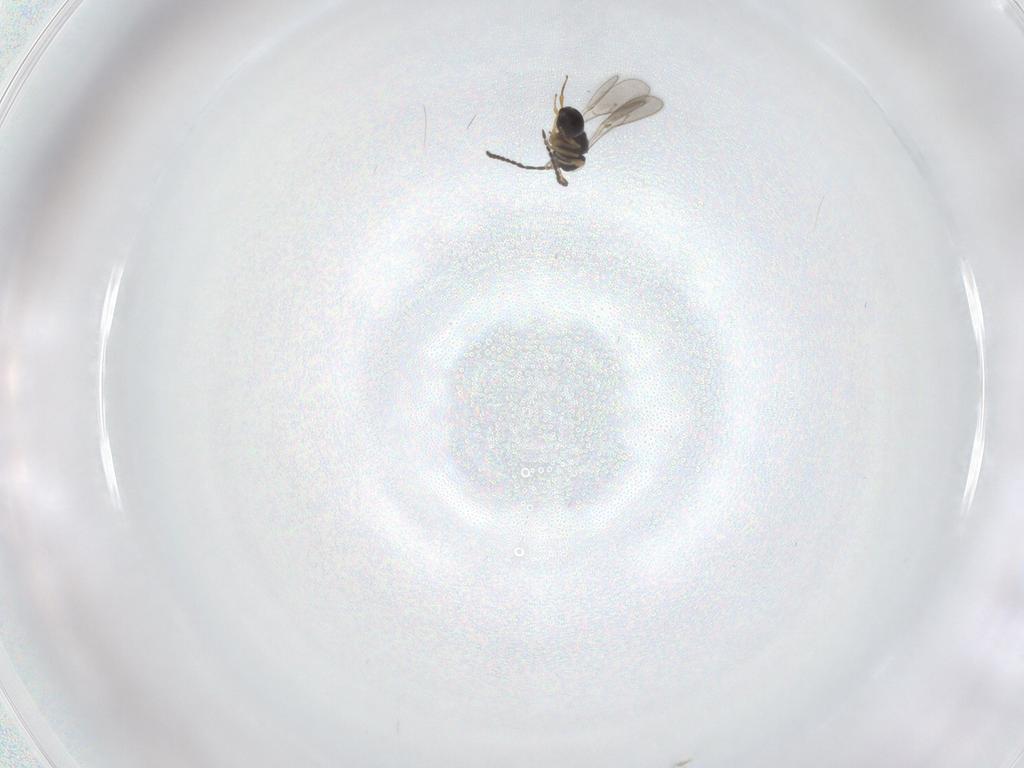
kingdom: Animalia
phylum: Arthropoda
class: Insecta
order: Hymenoptera
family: Scelionidae
